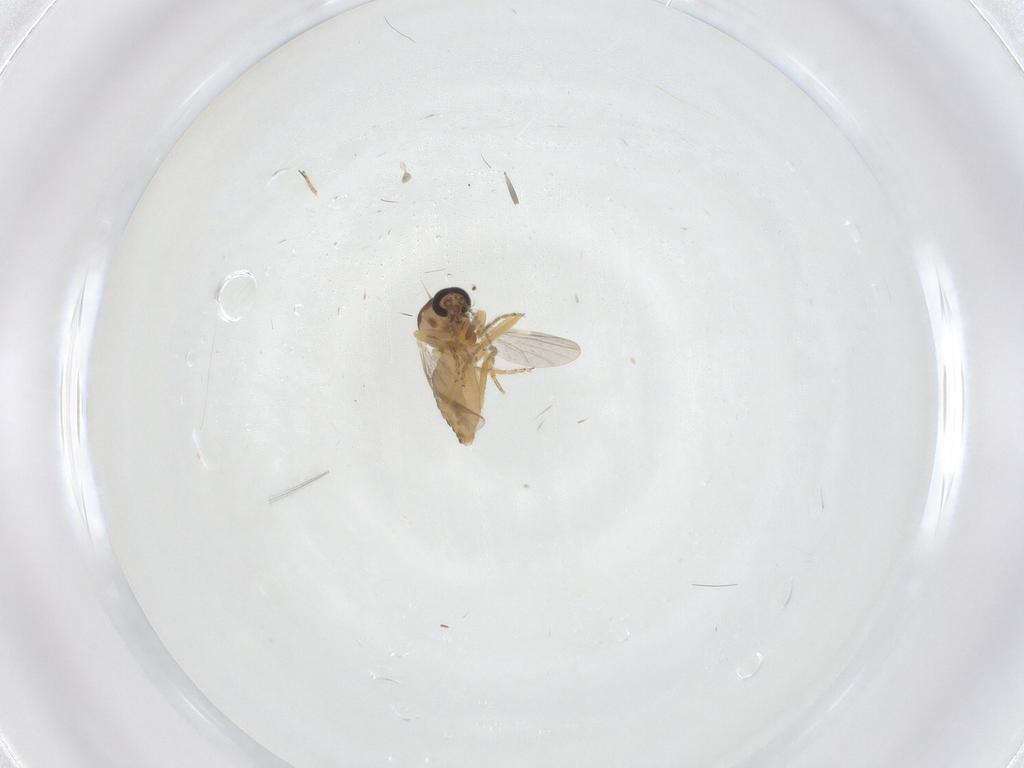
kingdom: Animalia
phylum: Arthropoda
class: Insecta
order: Diptera
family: Ceratopogonidae
